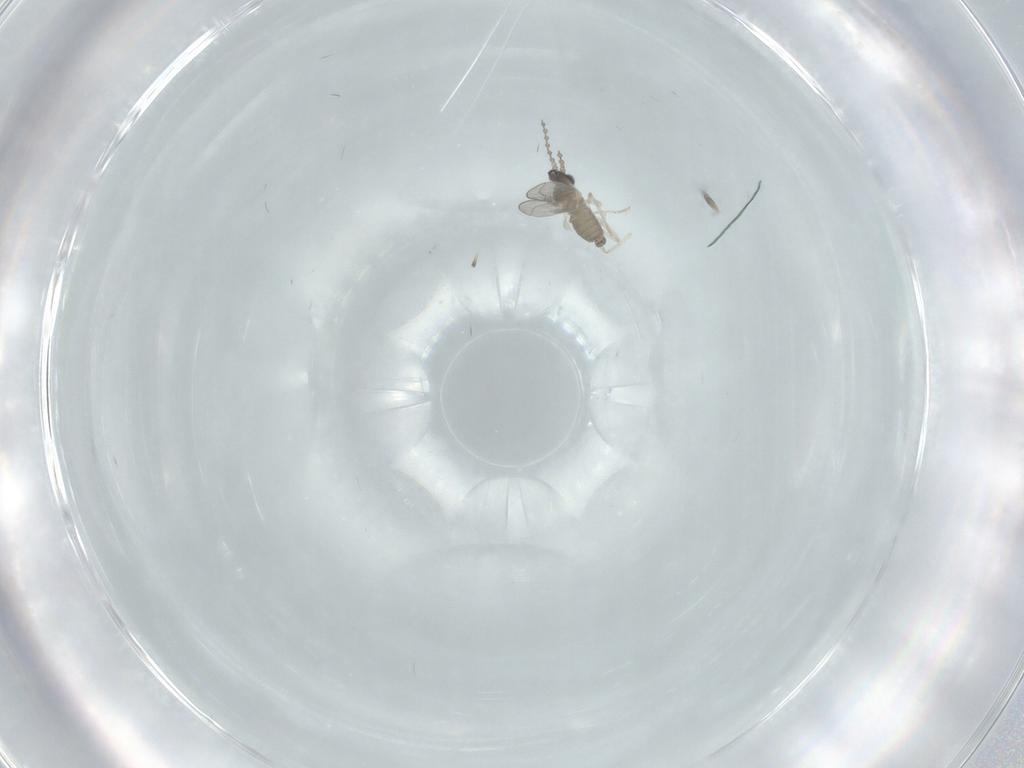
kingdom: Animalia
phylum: Arthropoda
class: Insecta
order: Diptera
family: Cecidomyiidae
